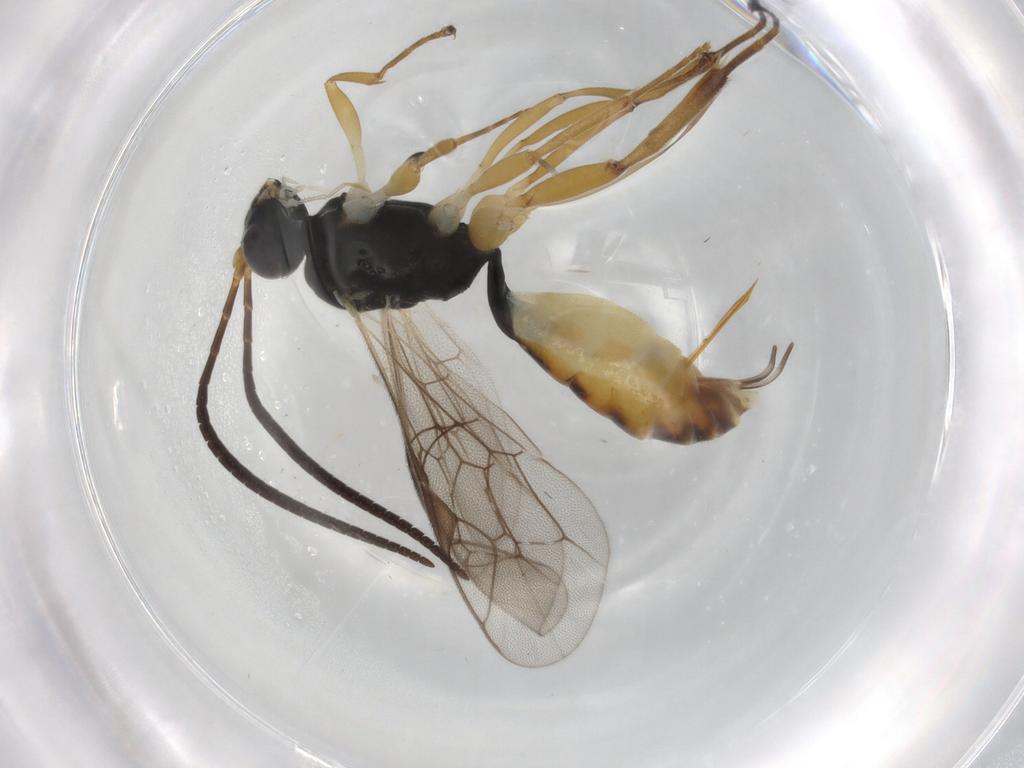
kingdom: Animalia
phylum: Arthropoda
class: Insecta
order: Hymenoptera
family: Ichneumonidae
